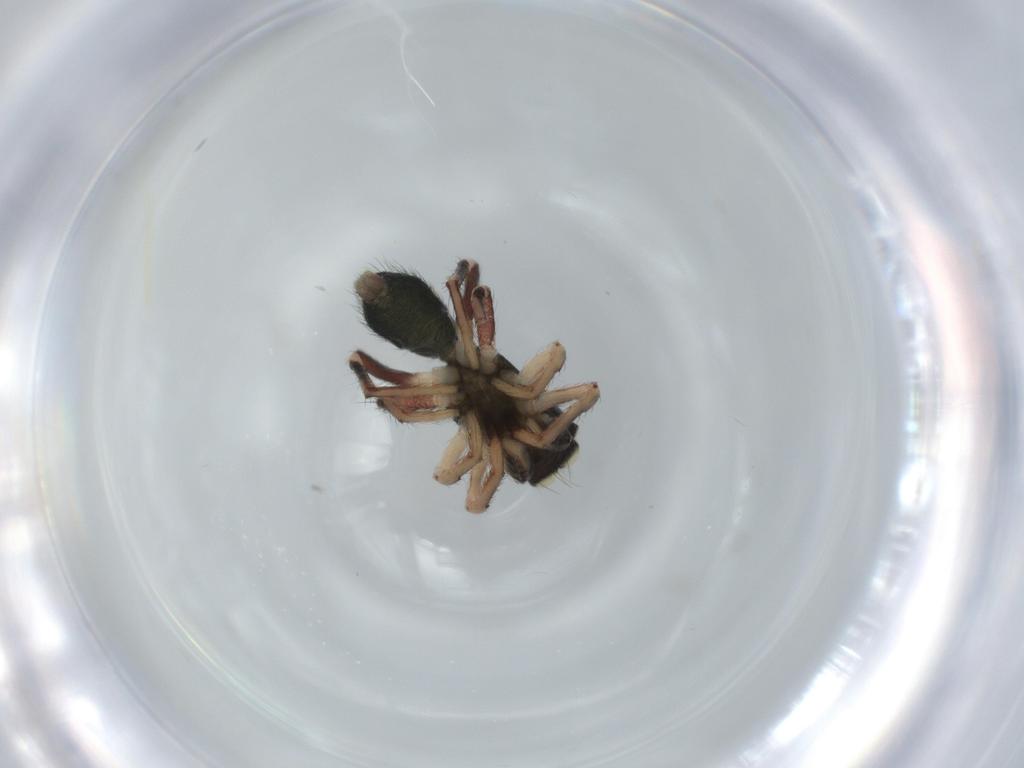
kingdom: Animalia
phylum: Arthropoda
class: Arachnida
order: Araneae
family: Salticidae
